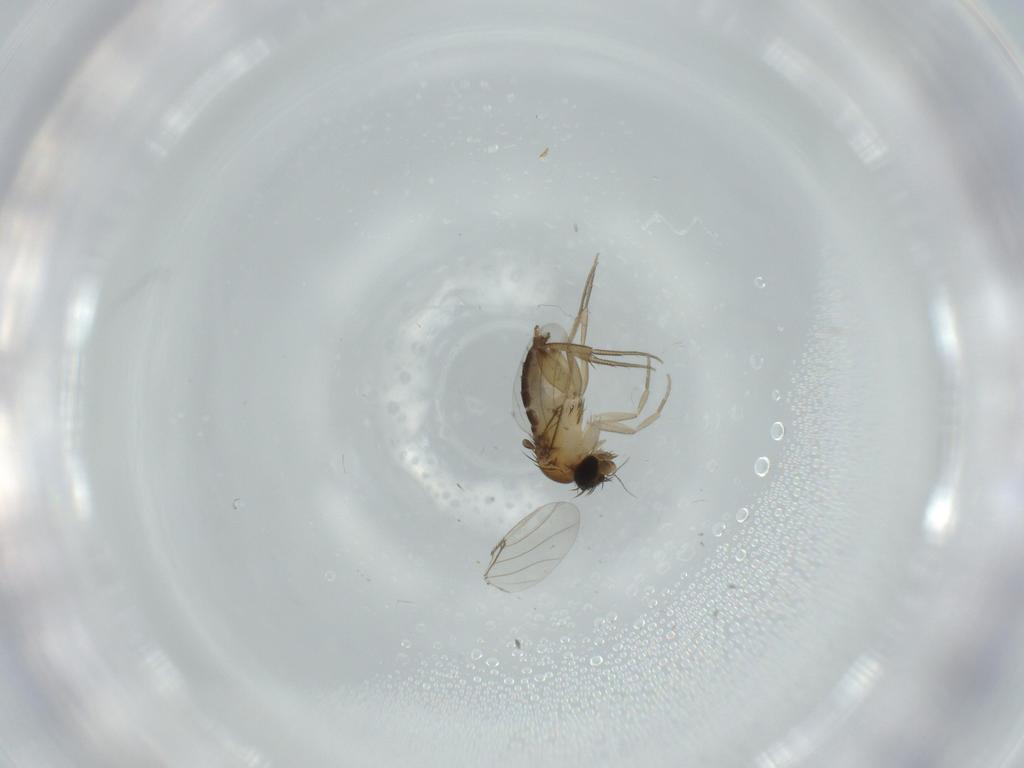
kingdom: Animalia
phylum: Arthropoda
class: Insecta
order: Diptera
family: Phoridae
